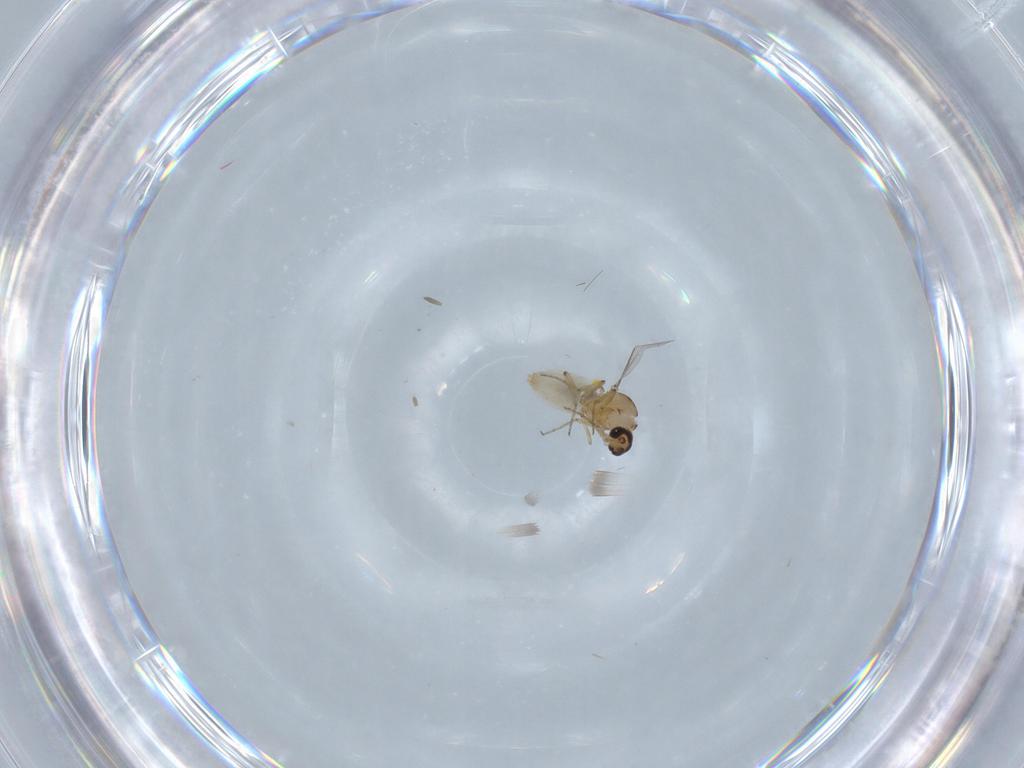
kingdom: Animalia
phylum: Arthropoda
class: Insecta
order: Diptera
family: Ceratopogonidae
